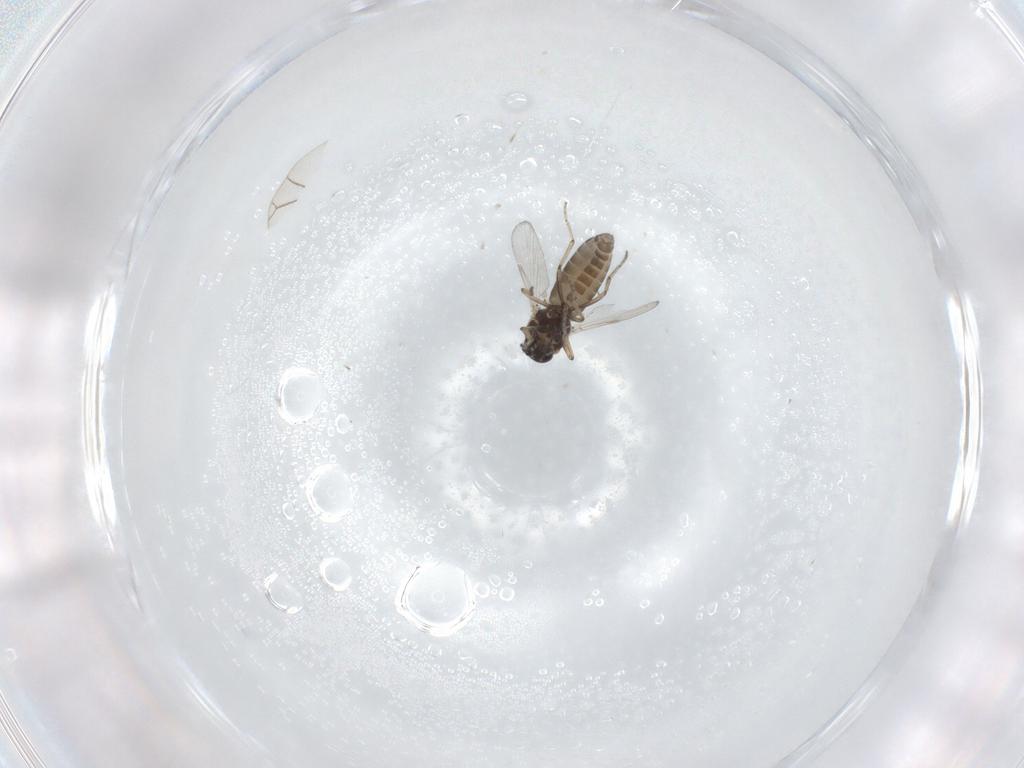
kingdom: Animalia
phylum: Arthropoda
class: Insecta
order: Diptera
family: Ceratopogonidae
